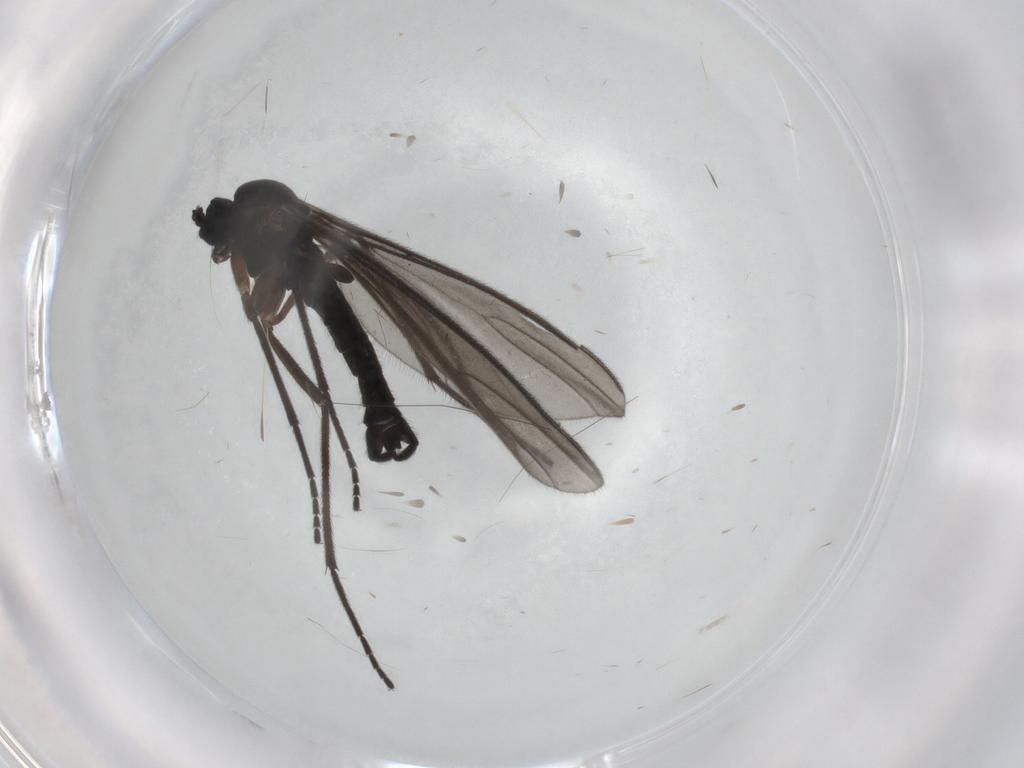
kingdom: Animalia
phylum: Arthropoda
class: Insecta
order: Diptera
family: Sciaridae
